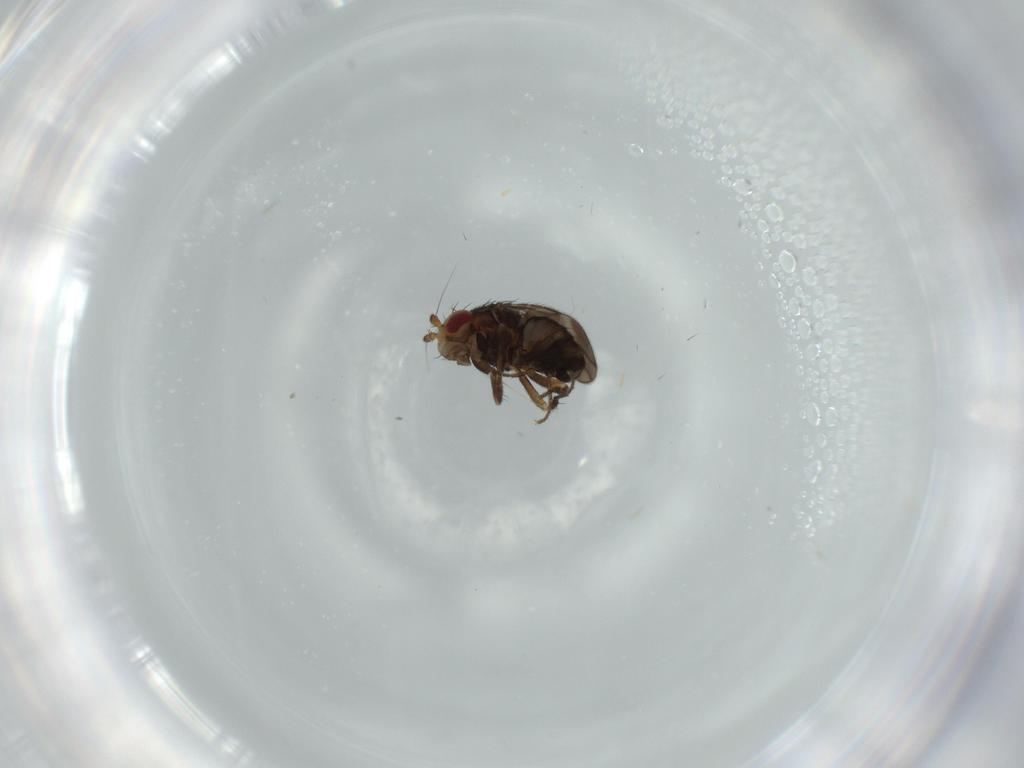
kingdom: Animalia
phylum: Arthropoda
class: Insecta
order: Diptera
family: Sphaeroceridae
